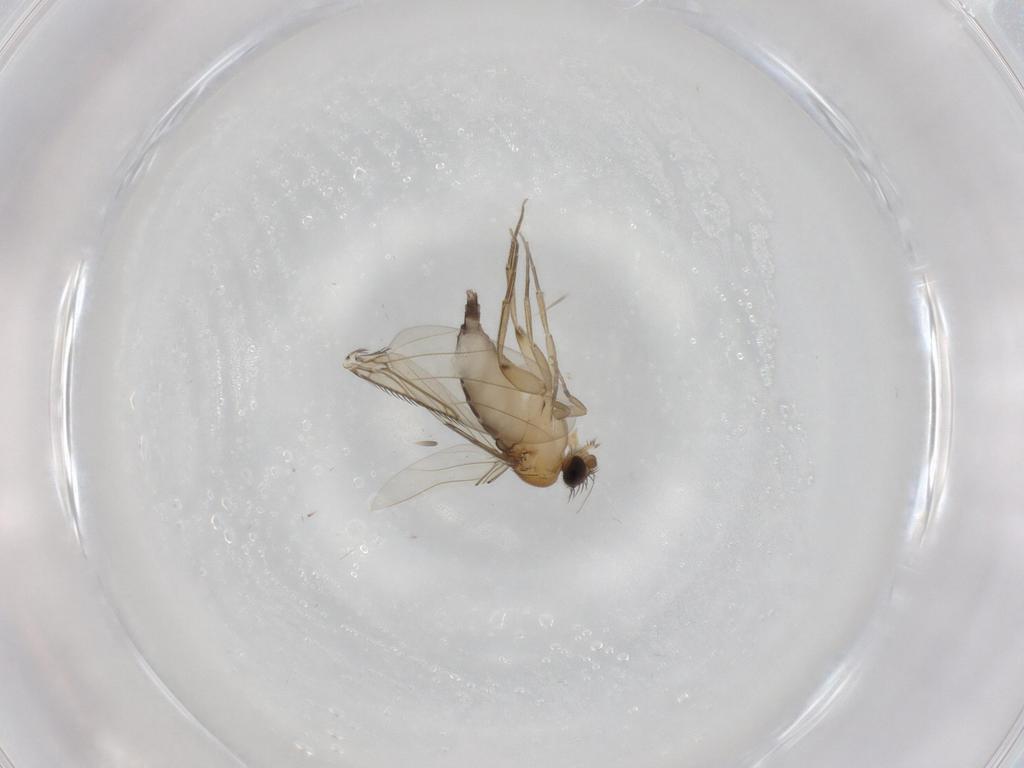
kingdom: Animalia
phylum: Arthropoda
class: Insecta
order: Diptera
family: Phoridae
